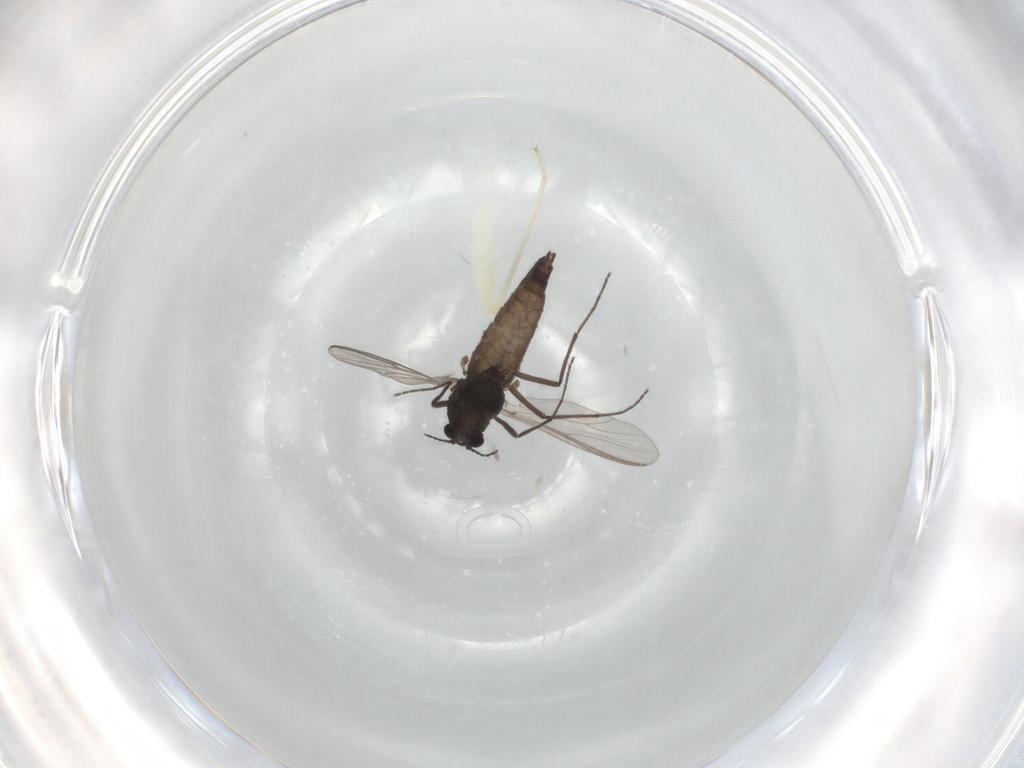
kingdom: Animalia
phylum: Arthropoda
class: Insecta
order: Diptera
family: Chironomidae
